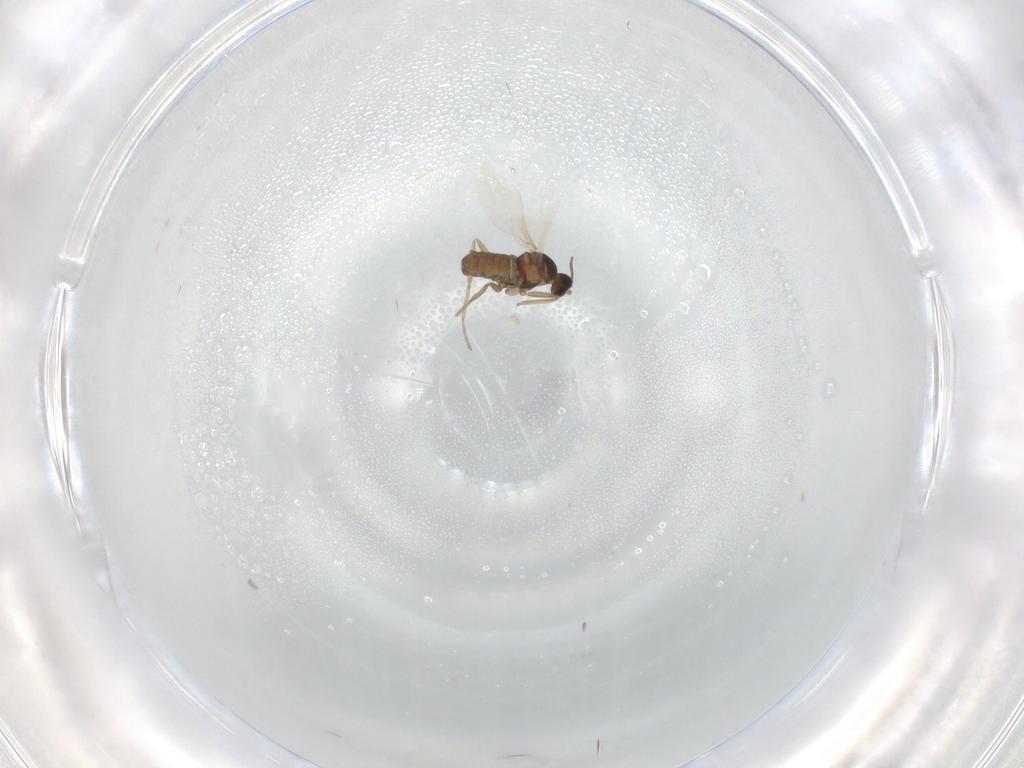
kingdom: Animalia
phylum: Arthropoda
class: Insecta
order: Diptera
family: Cecidomyiidae
